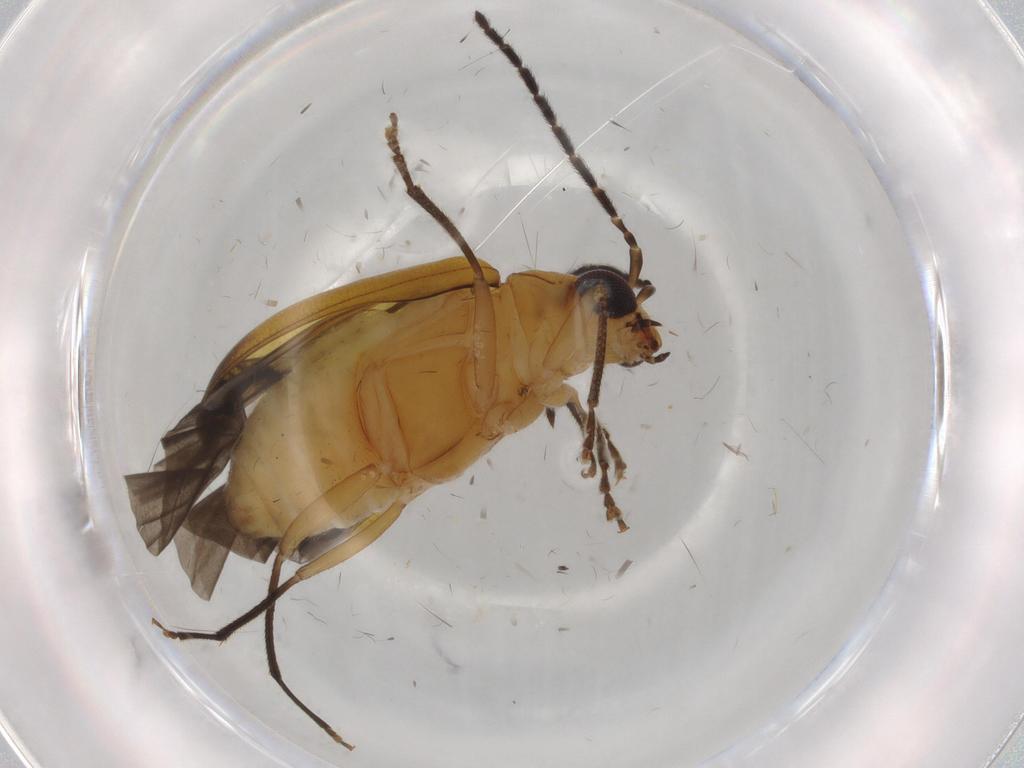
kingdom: Animalia
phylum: Arthropoda
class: Insecta
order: Coleoptera
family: Chrysomelidae
